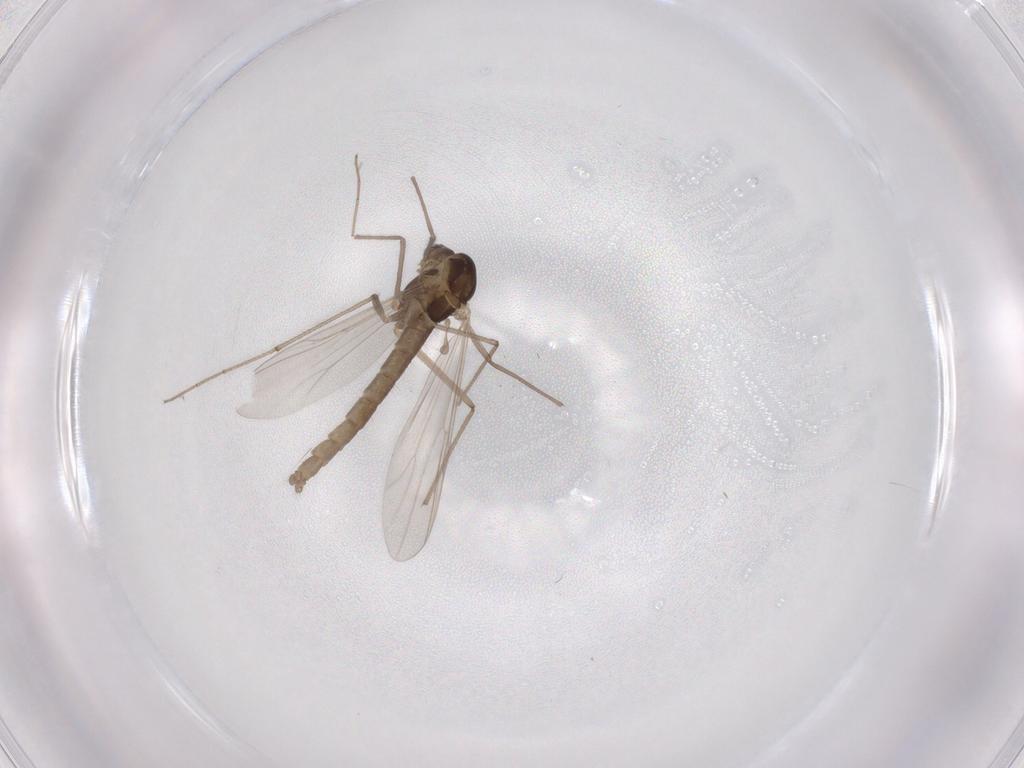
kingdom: Animalia
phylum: Arthropoda
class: Insecta
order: Diptera
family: Chironomidae
